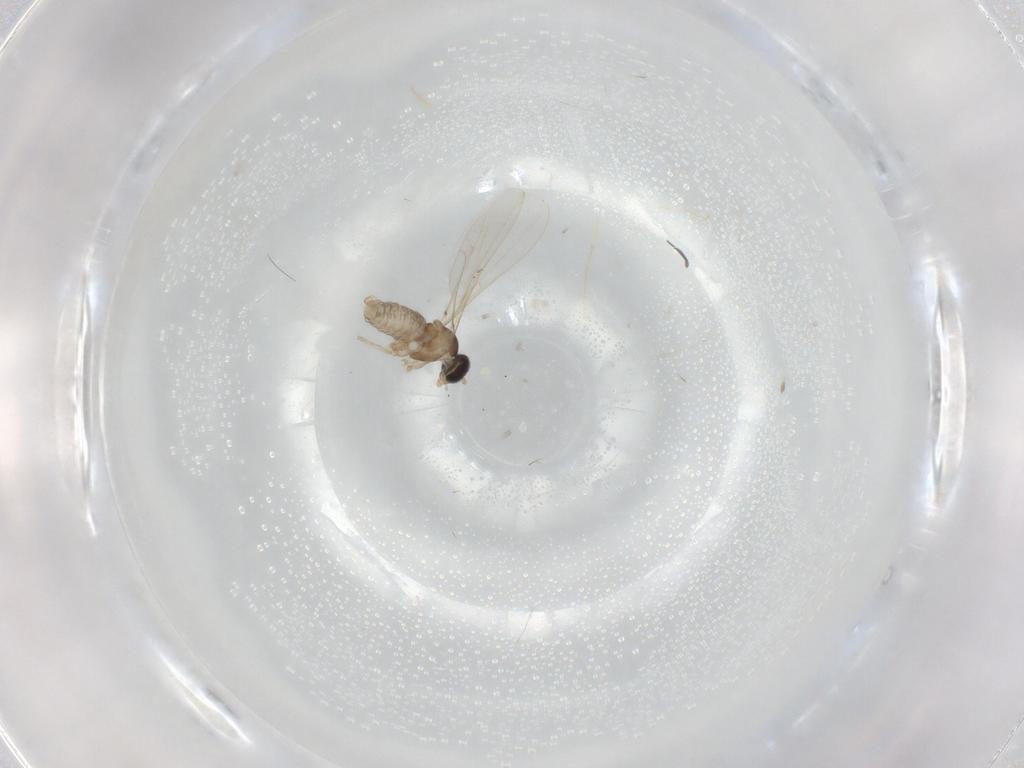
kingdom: Animalia
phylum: Arthropoda
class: Insecta
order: Diptera
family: Cecidomyiidae
